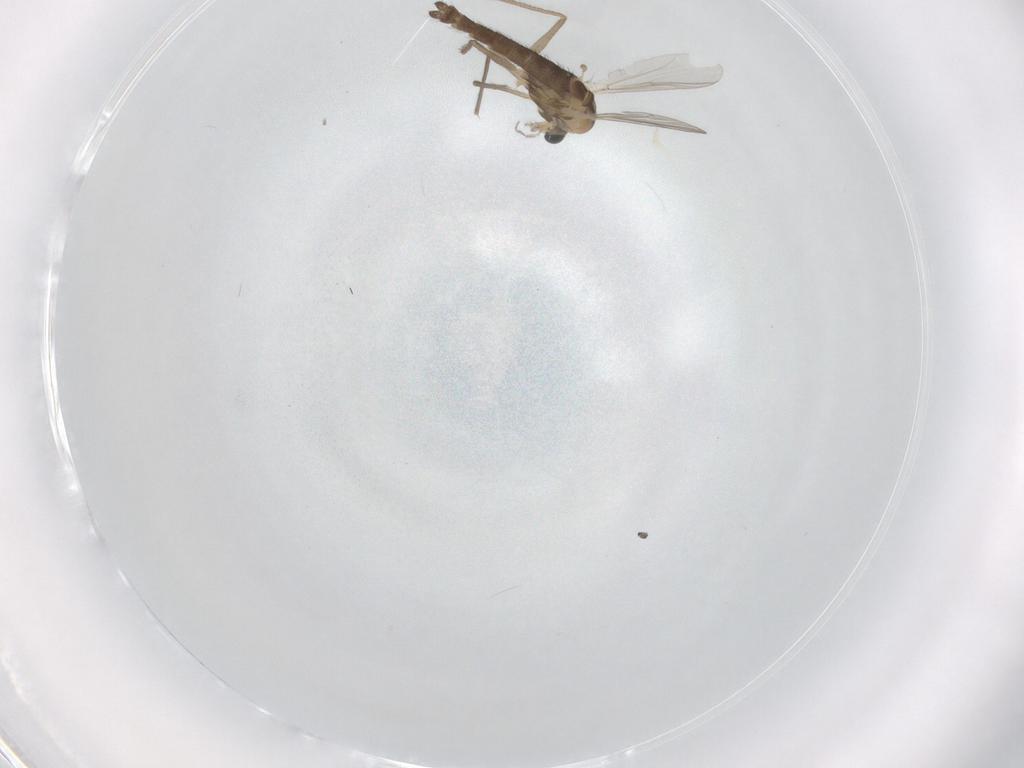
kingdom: Animalia
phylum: Arthropoda
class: Insecta
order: Diptera
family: Chironomidae
